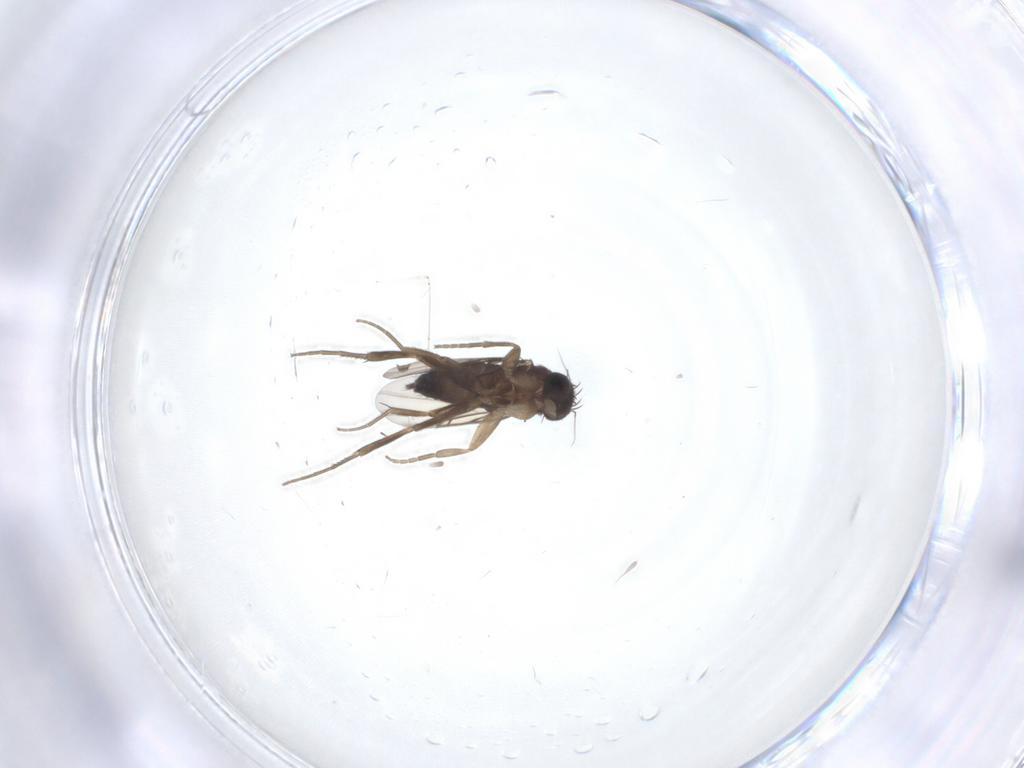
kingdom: Animalia
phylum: Arthropoda
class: Insecta
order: Diptera
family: Phoridae
